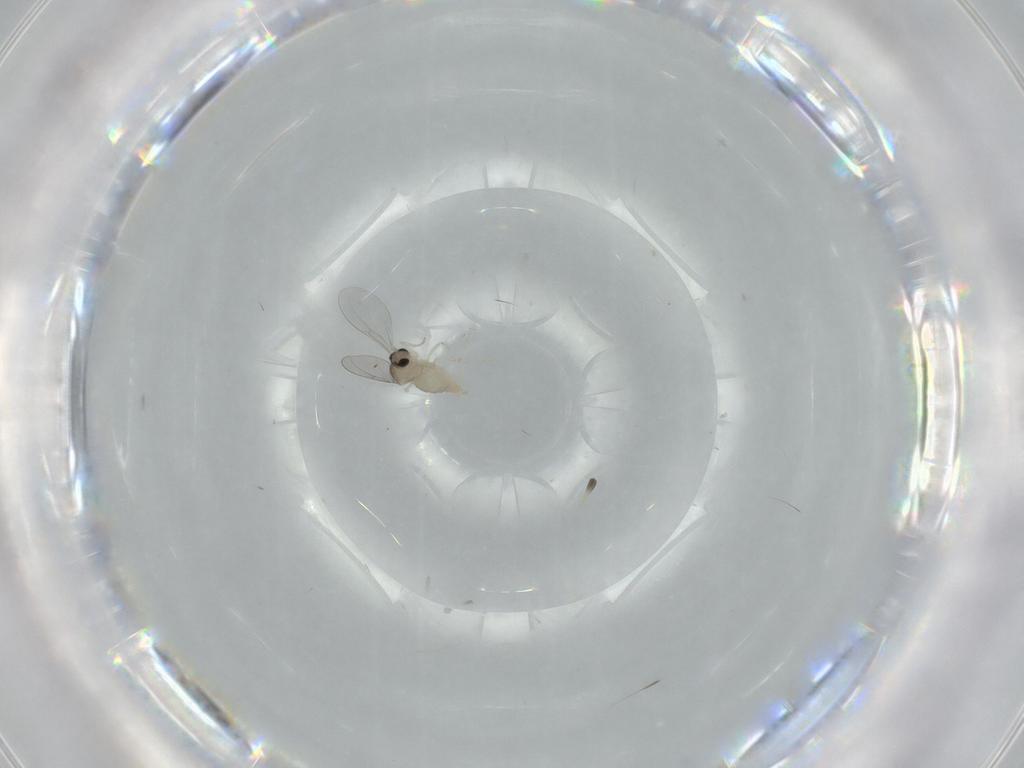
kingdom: Animalia
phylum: Arthropoda
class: Insecta
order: Diptera
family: Cecidomyiidae
